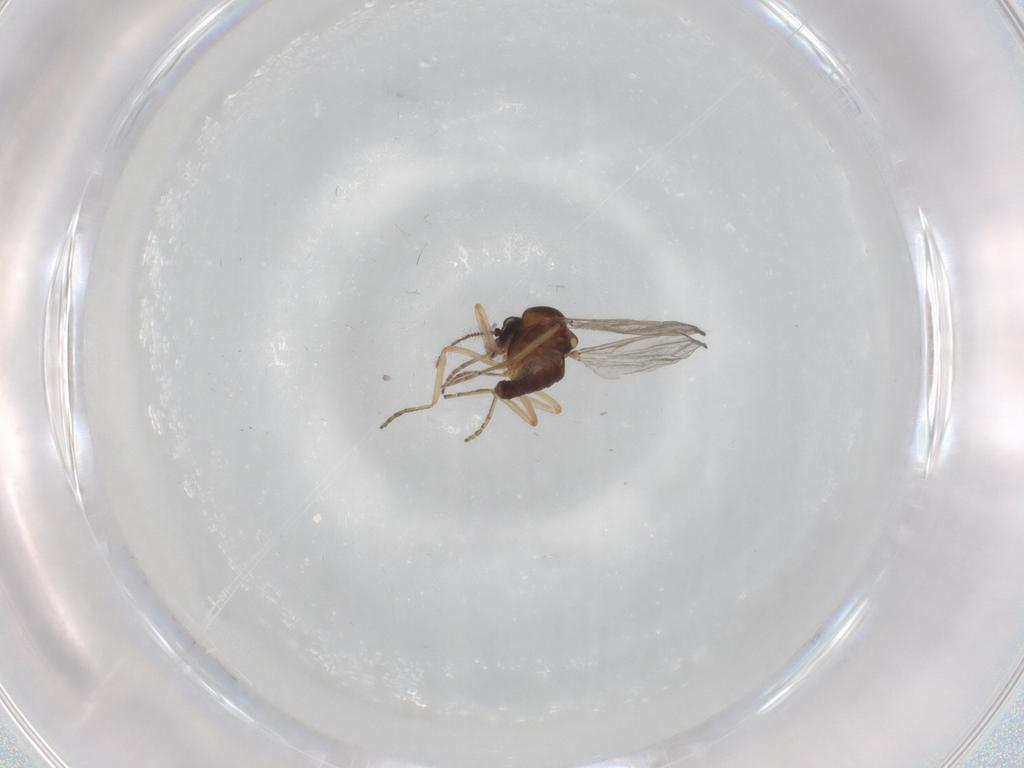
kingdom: Animalia
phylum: Arthropoda
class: Insecta
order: Diptera
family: Ceratopogonidae
